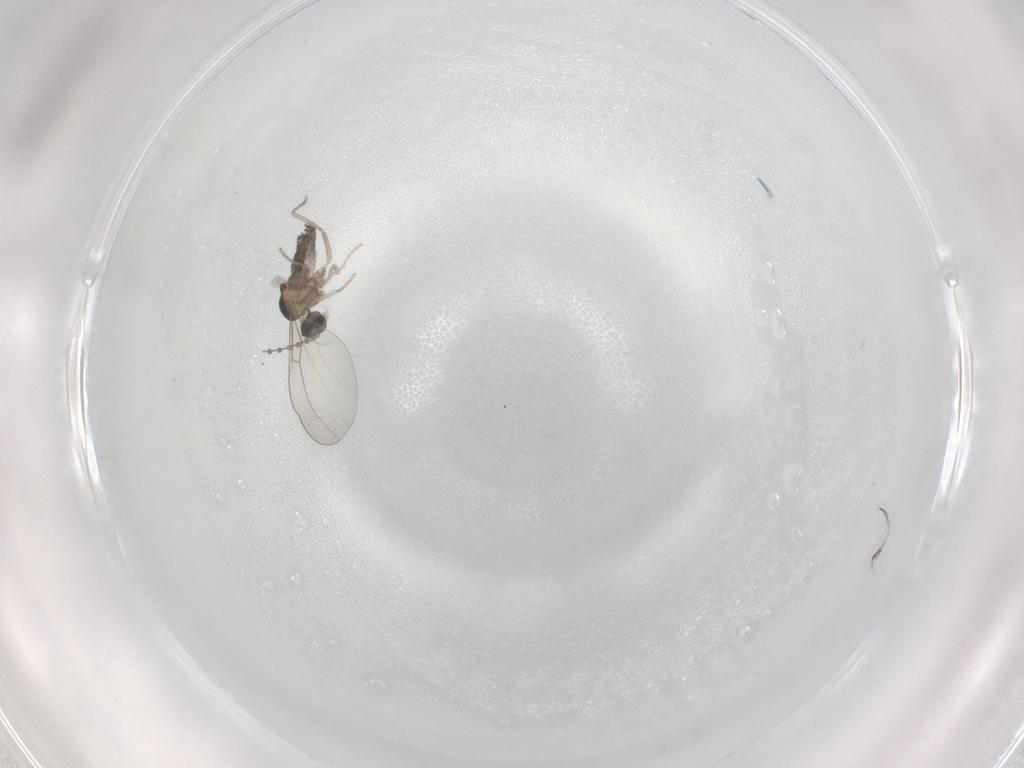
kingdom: Animalia
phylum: Arthropoda
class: Insecta
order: Diptera
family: Sciaridae
